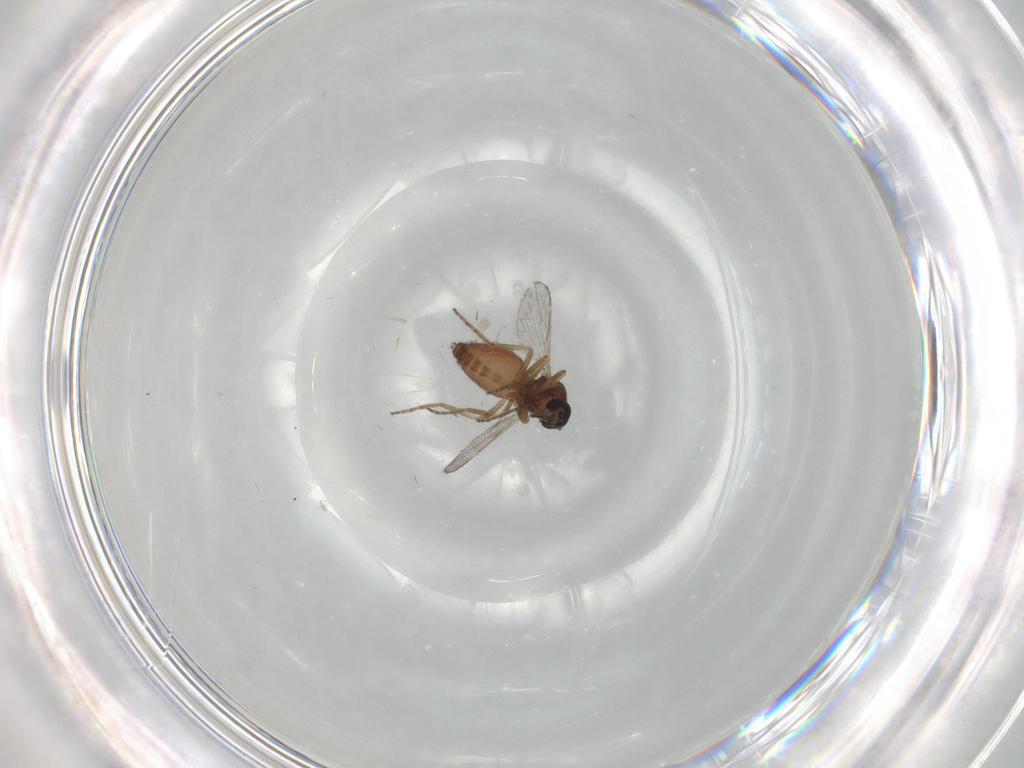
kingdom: Animalia
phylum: Arthropoda
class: Insecta
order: Diptera
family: Ceratopogonidae
